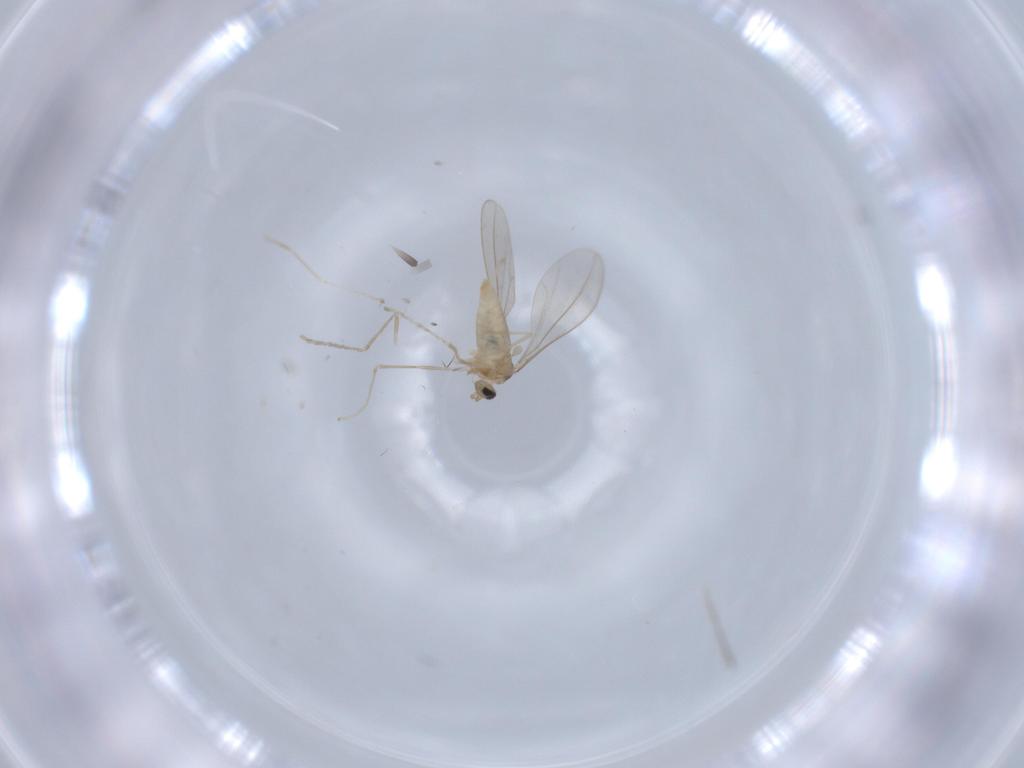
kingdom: Animalia
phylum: Arthropoda
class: Insecta
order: Diptera
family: Cecidomyiidae
